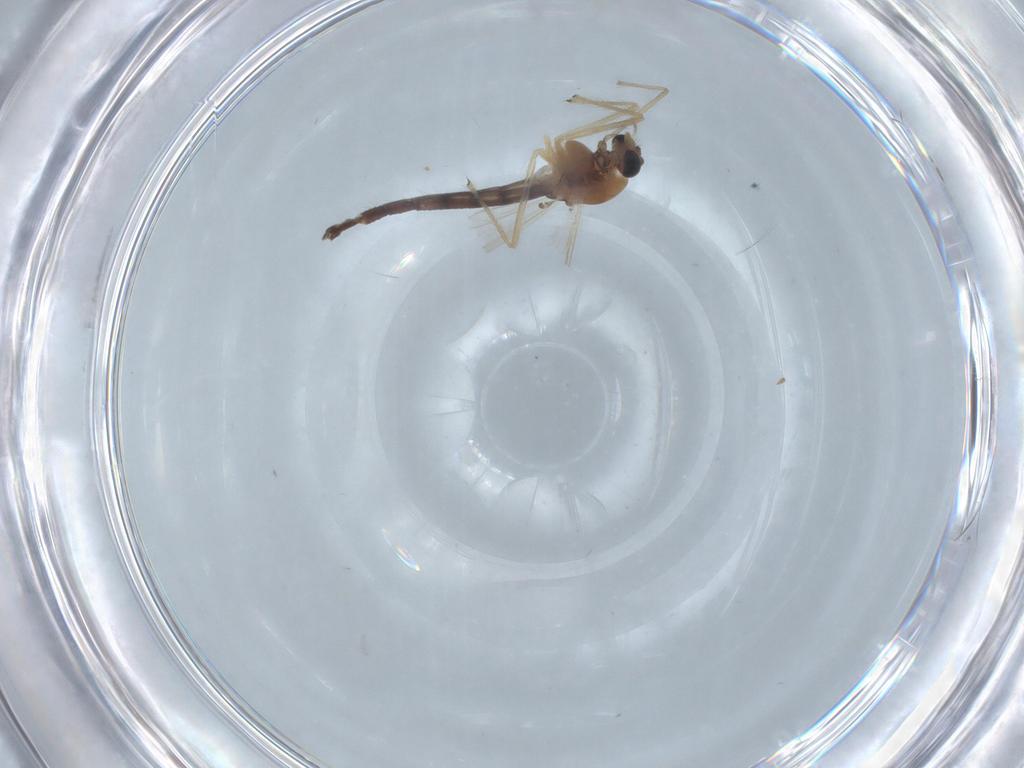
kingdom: Animalia
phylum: Arthropoda
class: Insecta
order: Diptera
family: Chironomidae
